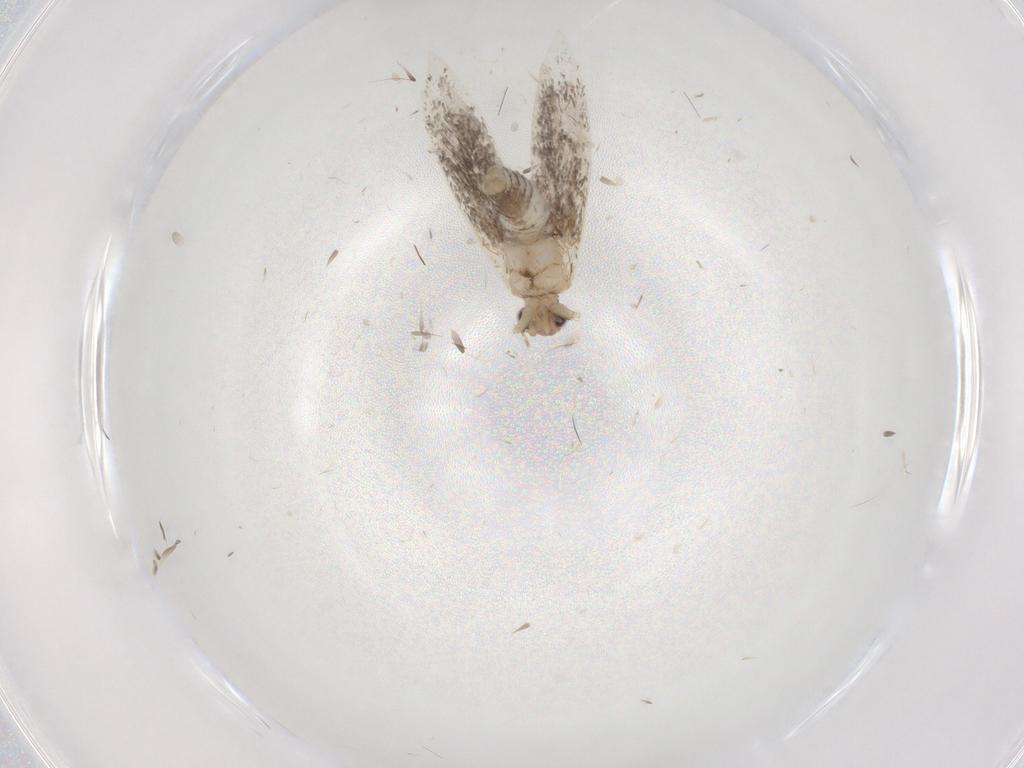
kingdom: Animalia
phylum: Arthropoda
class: Insecta
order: Lepidoptera
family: Tineidae
